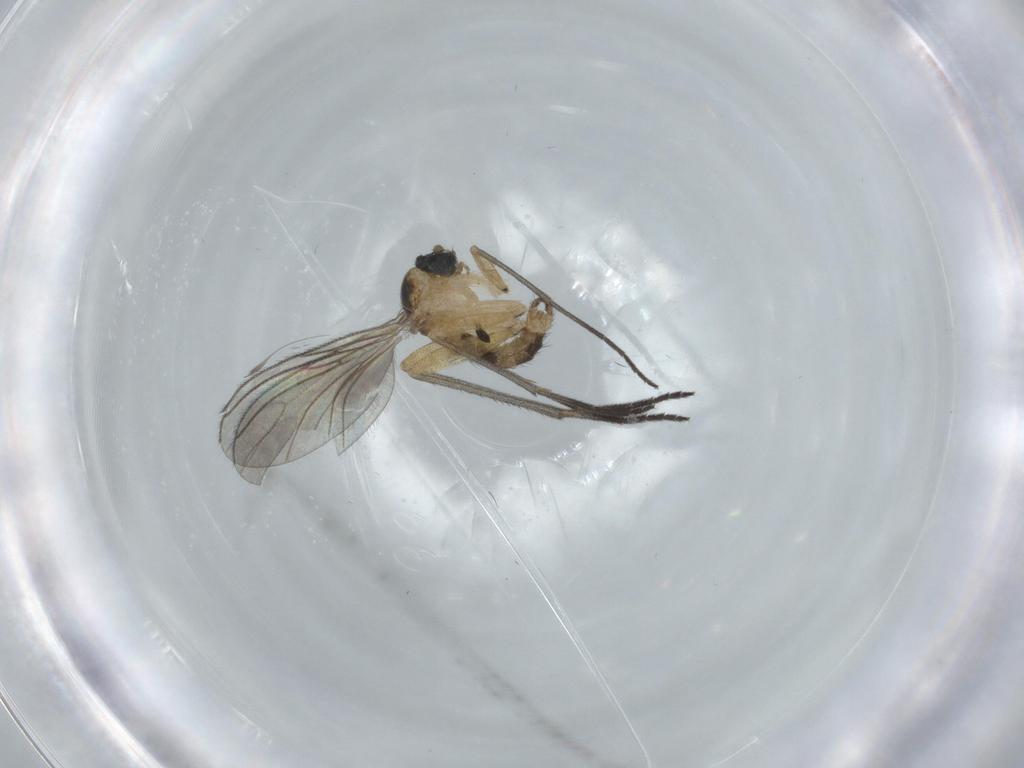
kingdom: Animalia
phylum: Arthropoda
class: Insecta
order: Diptera
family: Sciaridae
